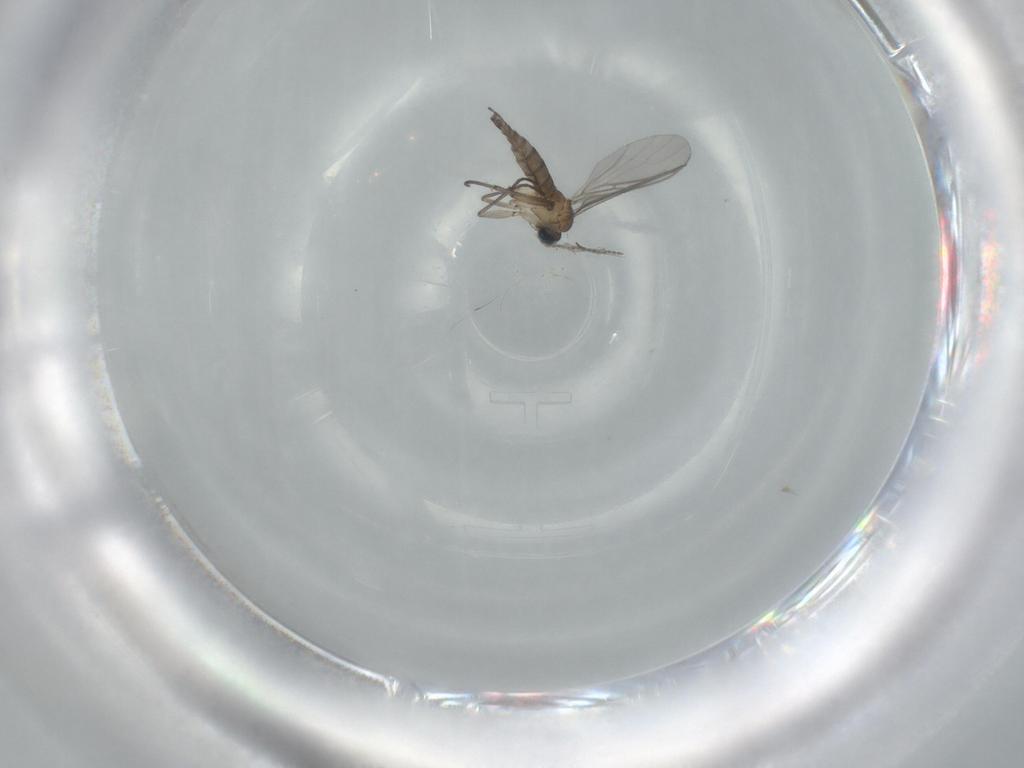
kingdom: Animalia
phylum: Arthropoda
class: Insecta
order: Diptera
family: Sciaridae
